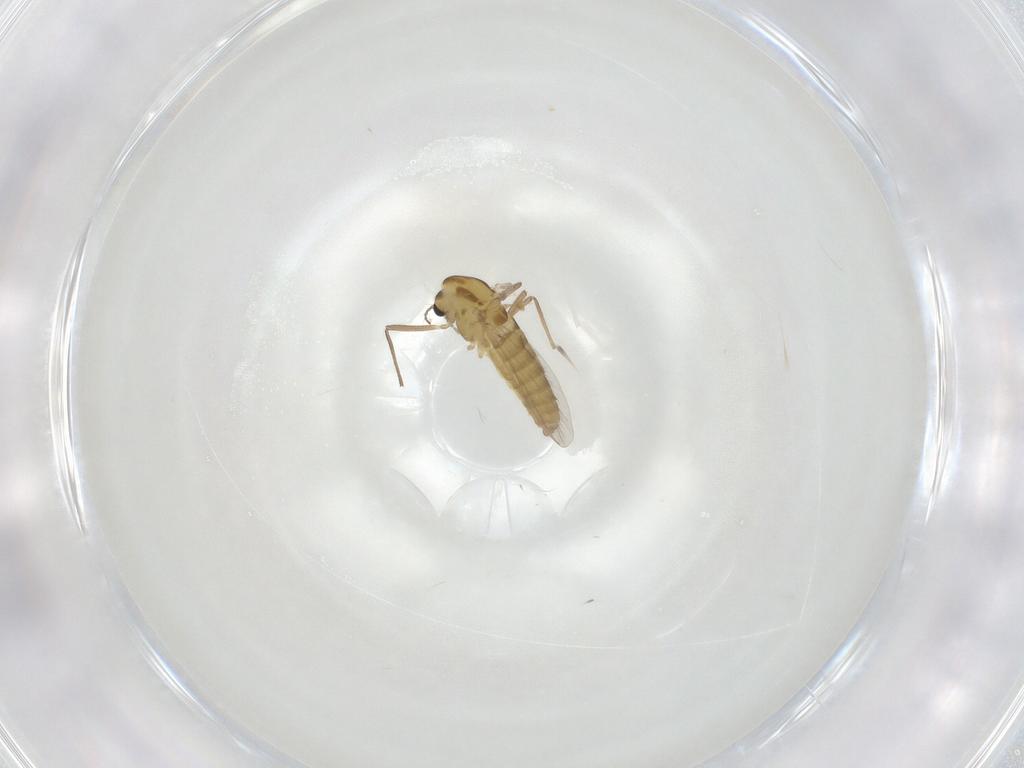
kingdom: Animalia
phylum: Arthropoda
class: Insecta
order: Diptera
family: Chironomidae
